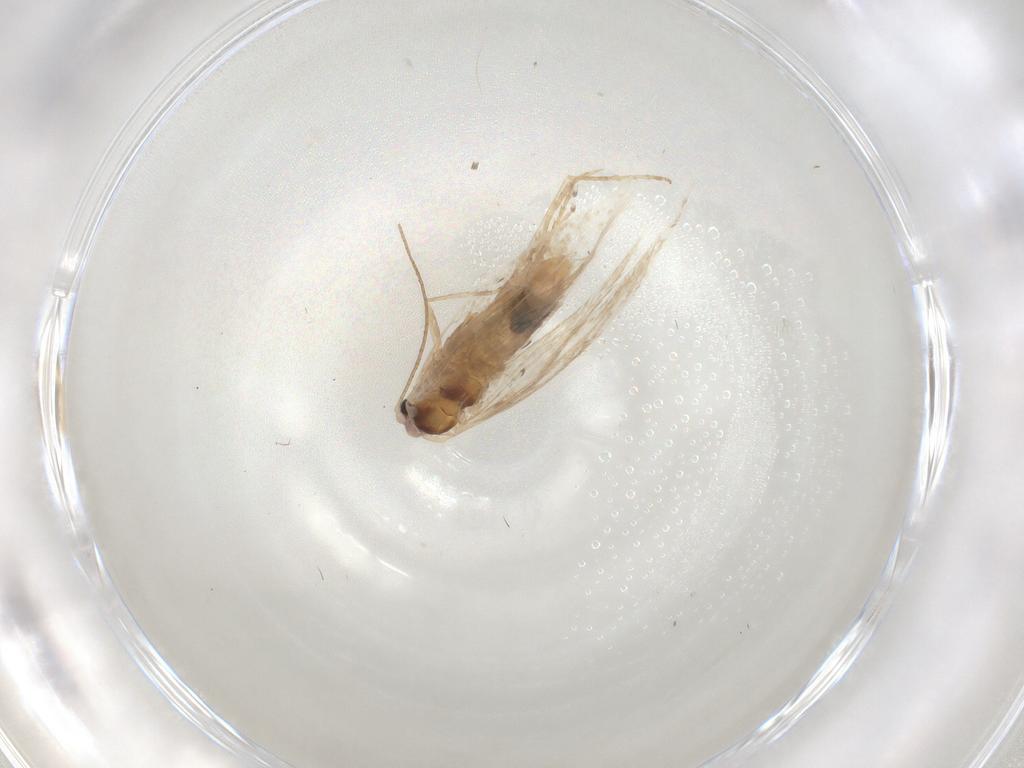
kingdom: Animalia
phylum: Arthropoda
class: Insecta
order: Lepidoptera
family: Bucculatricidae
